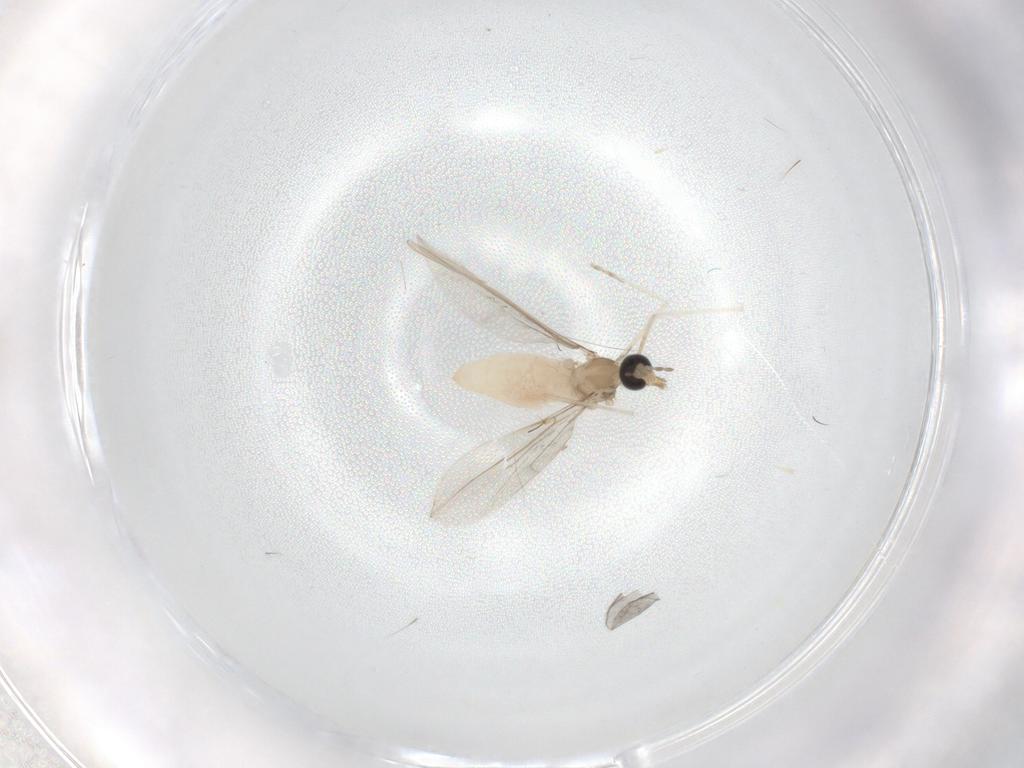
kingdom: Animalia
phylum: Arthropoda
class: Insecta
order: Diptera
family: Cecidomyiidae
